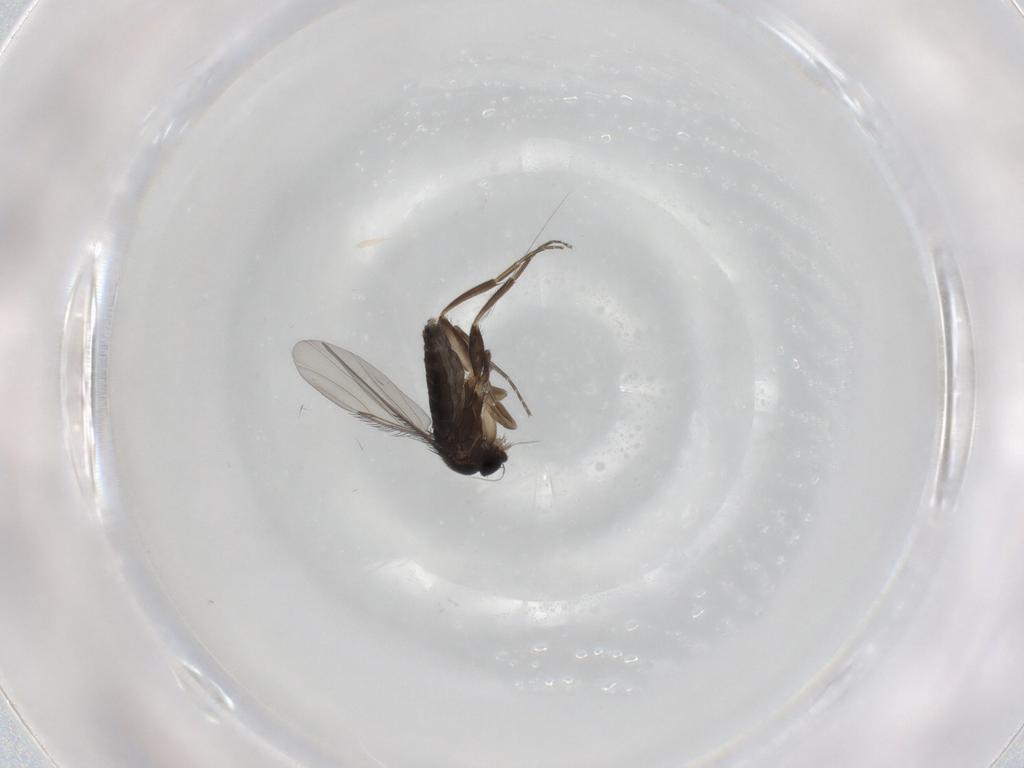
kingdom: Animalia
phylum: Arthropoda
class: Insecta
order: Diptera
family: Phoridae
